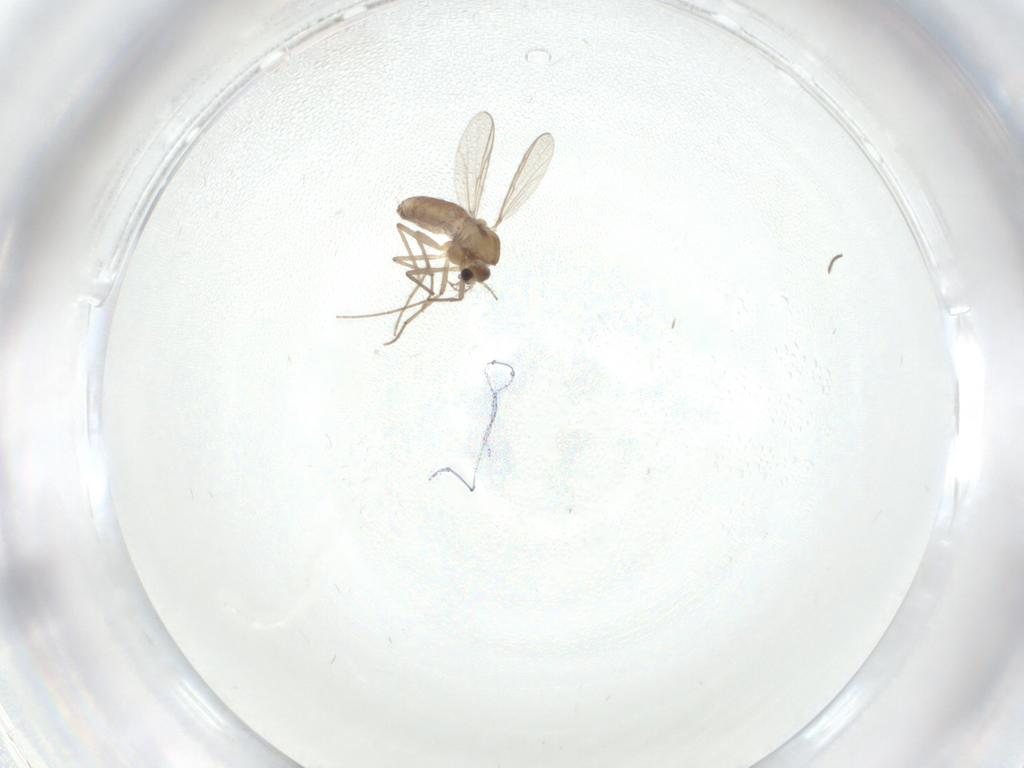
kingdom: Animalia
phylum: Arthropoda
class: Insecta
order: Diptera
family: Chironomidae
